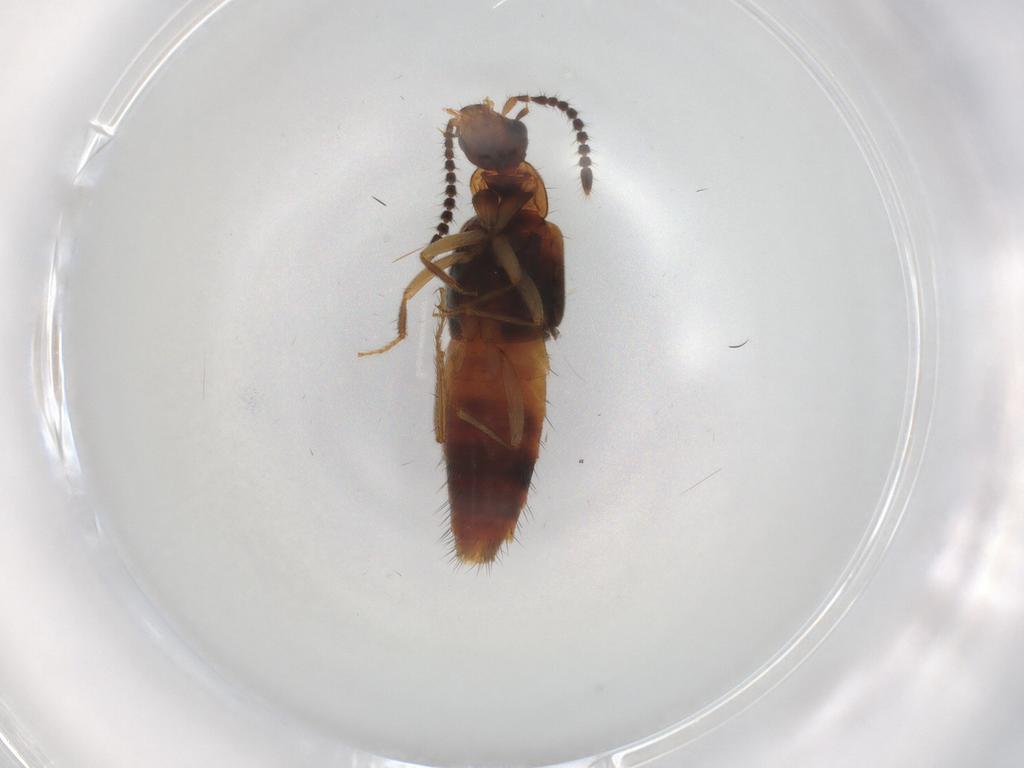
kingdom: Animalia
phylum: Arthropoda
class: Insecta
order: Coleoptera
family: Staphylinidae
